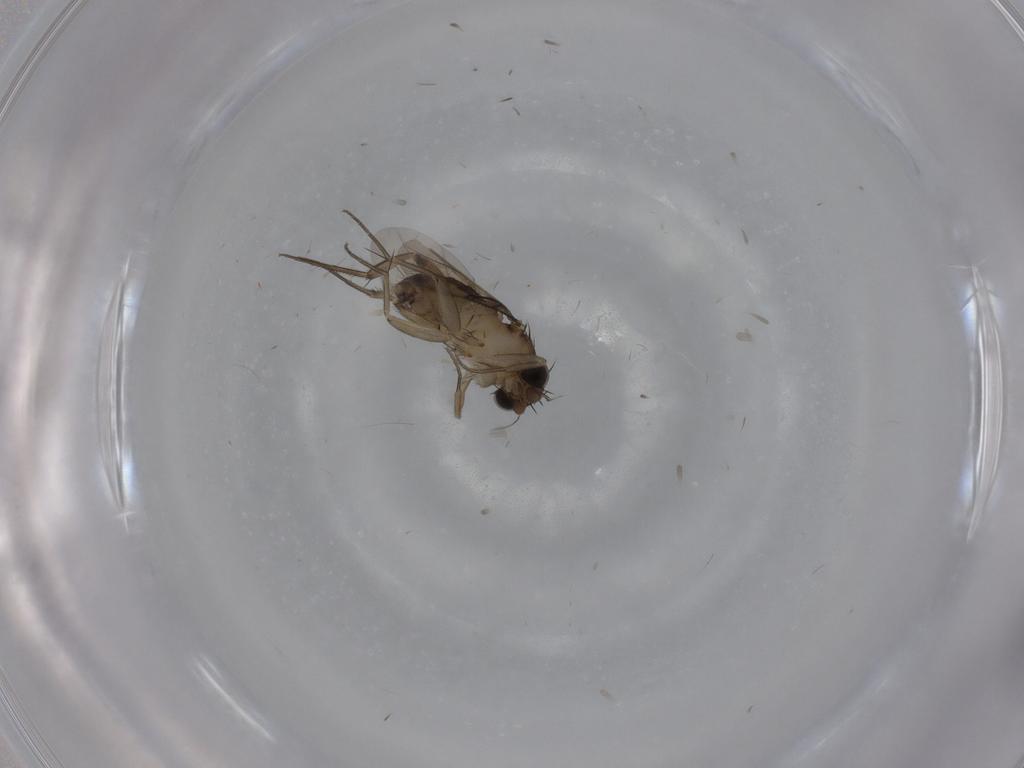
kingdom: Animalia
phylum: Arthropoda
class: Insecta
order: Diptera
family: Phoridae
